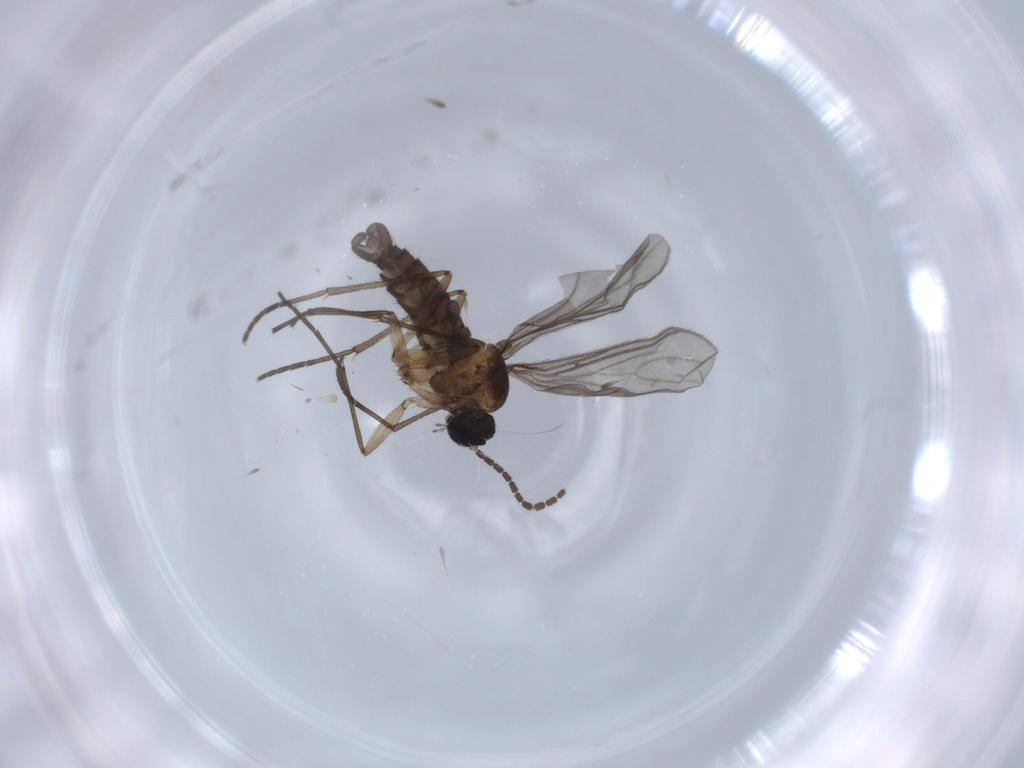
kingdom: Animalia
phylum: Arthropoda
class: Insecta
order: Diptera
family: Sciaridae
